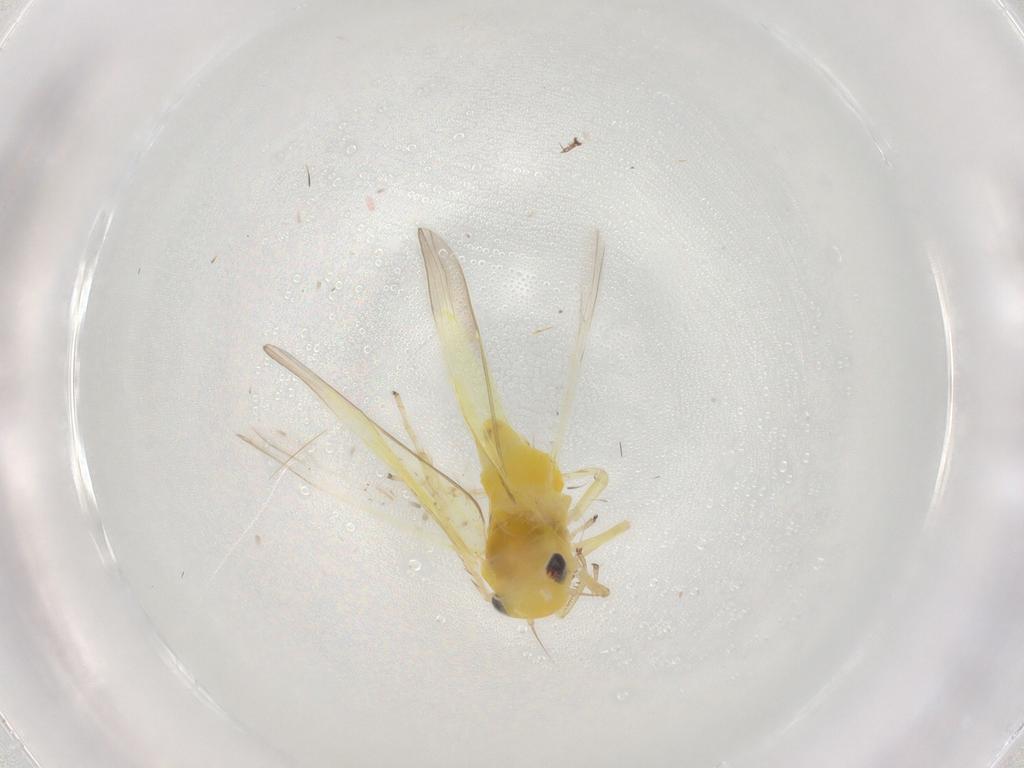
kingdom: Animalia
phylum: Arthropoda
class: Insecta
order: Hemiptera
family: Cicadellidae
